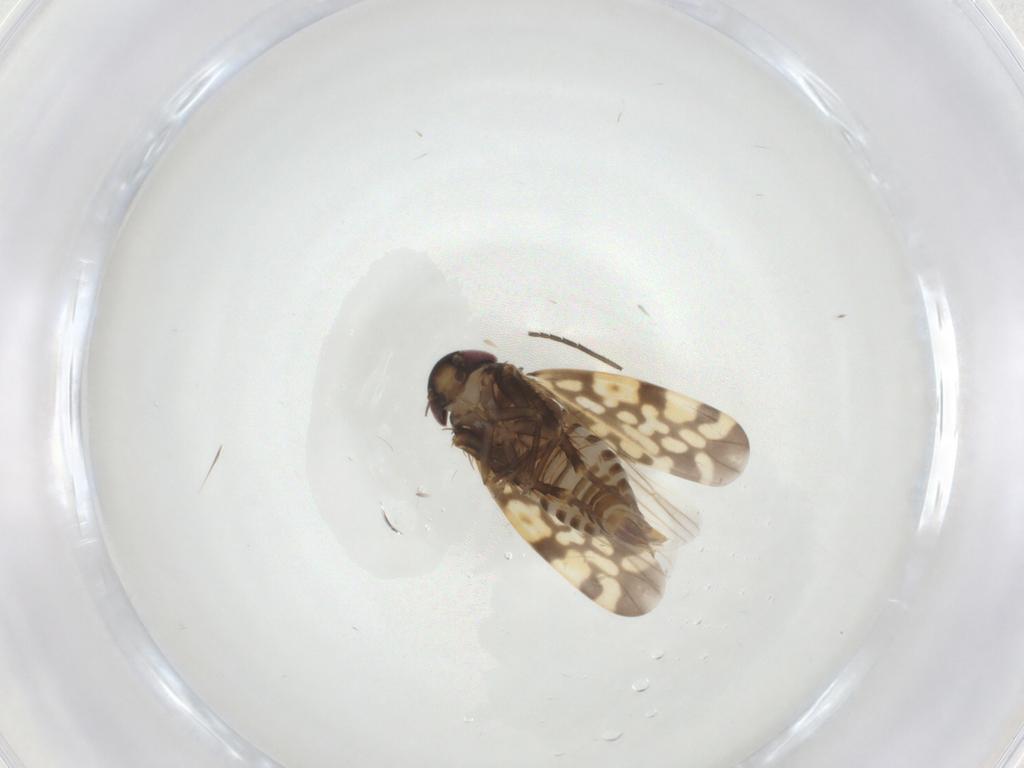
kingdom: Animalia
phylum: Arthropoda
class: Insecta
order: Hemiptera
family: Cicadellidae
